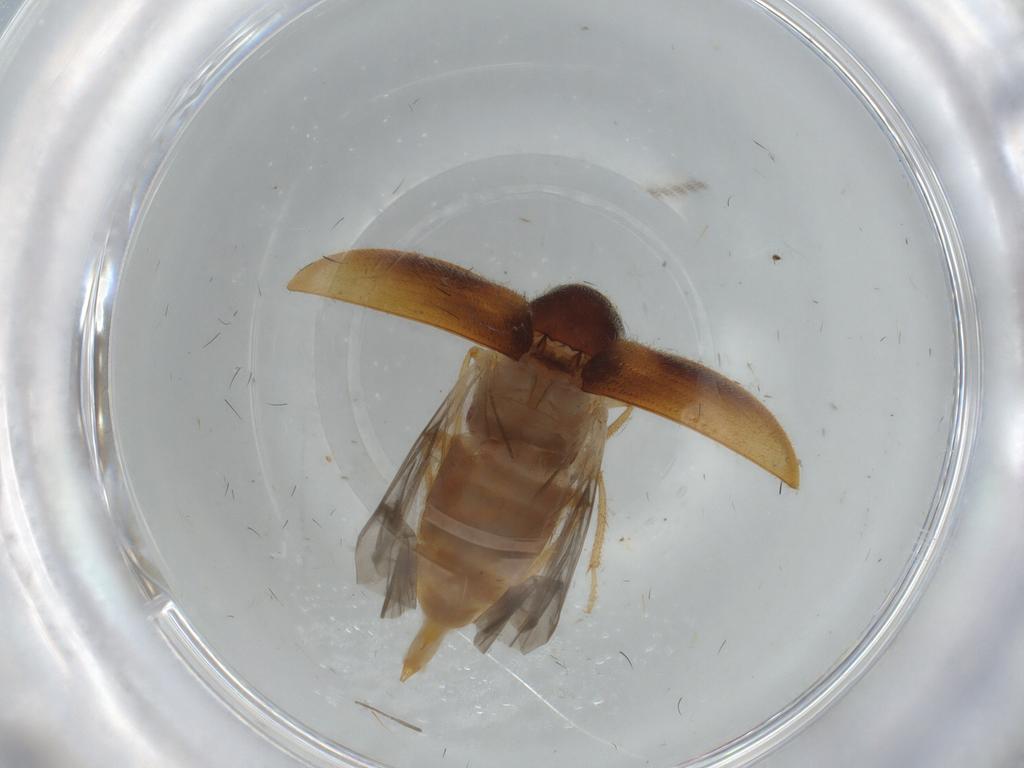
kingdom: Animalia
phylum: Arthropoda
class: Insecta
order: Coleoptera
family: Ptilodactylidae
